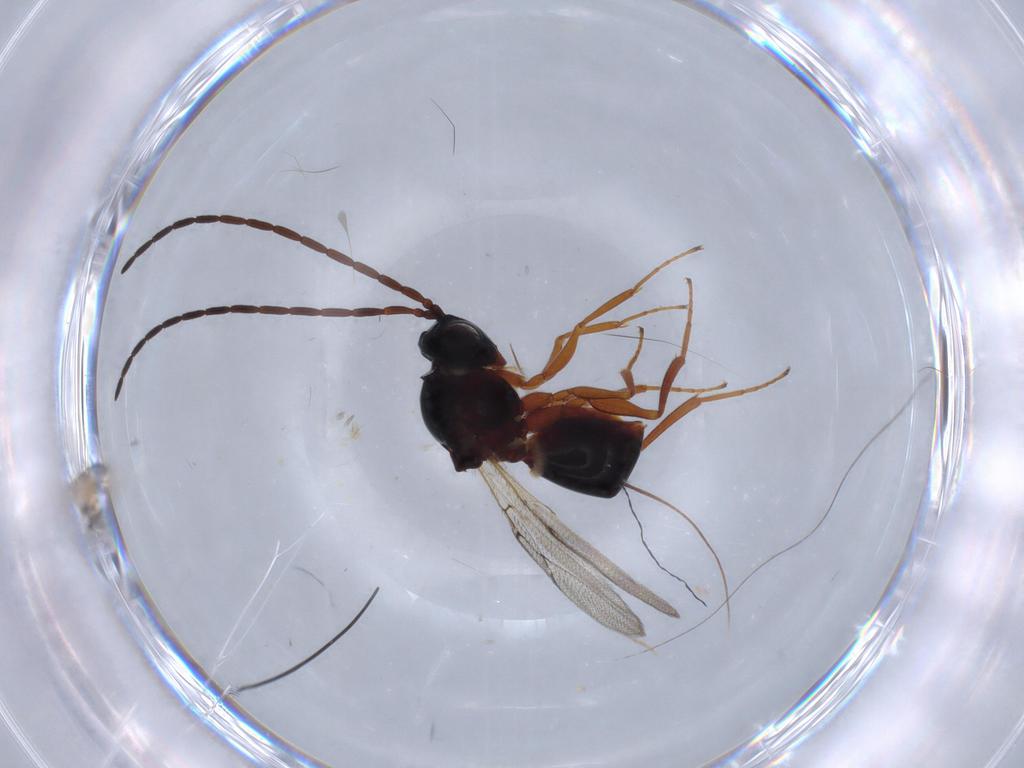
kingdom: Animalia
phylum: Arthropoda
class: Insecta
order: Hymenoptera
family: Figitidae
